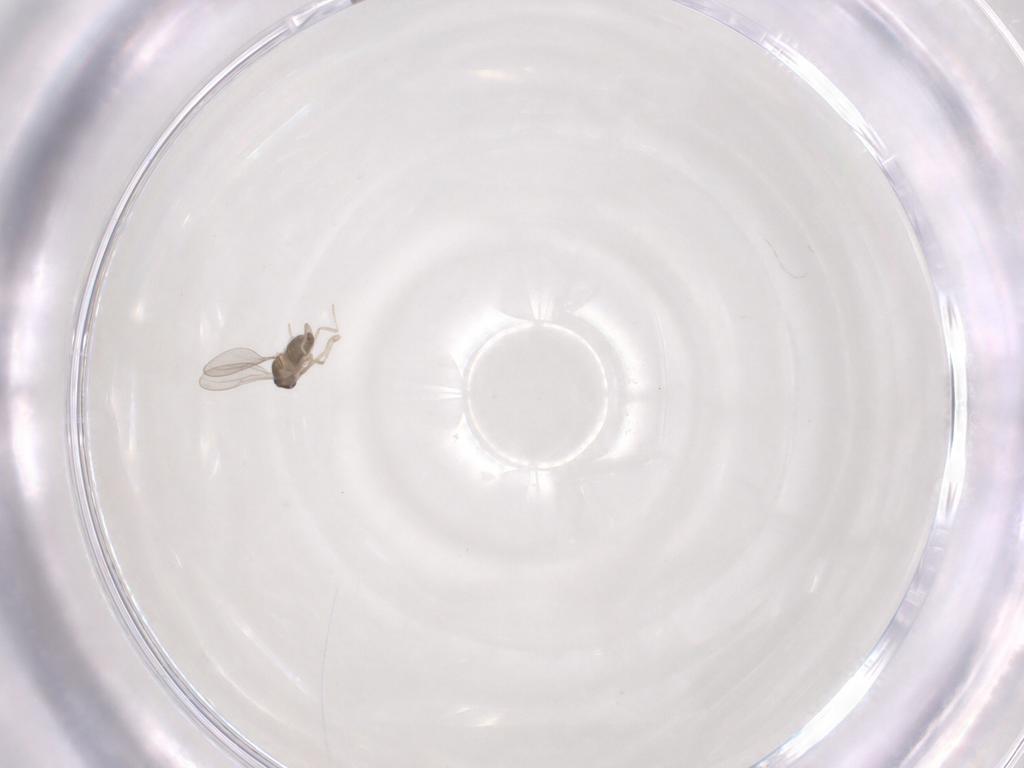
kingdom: Animalia
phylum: Arthropoda
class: Insecta
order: Diptera
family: Cecidomyiidae
